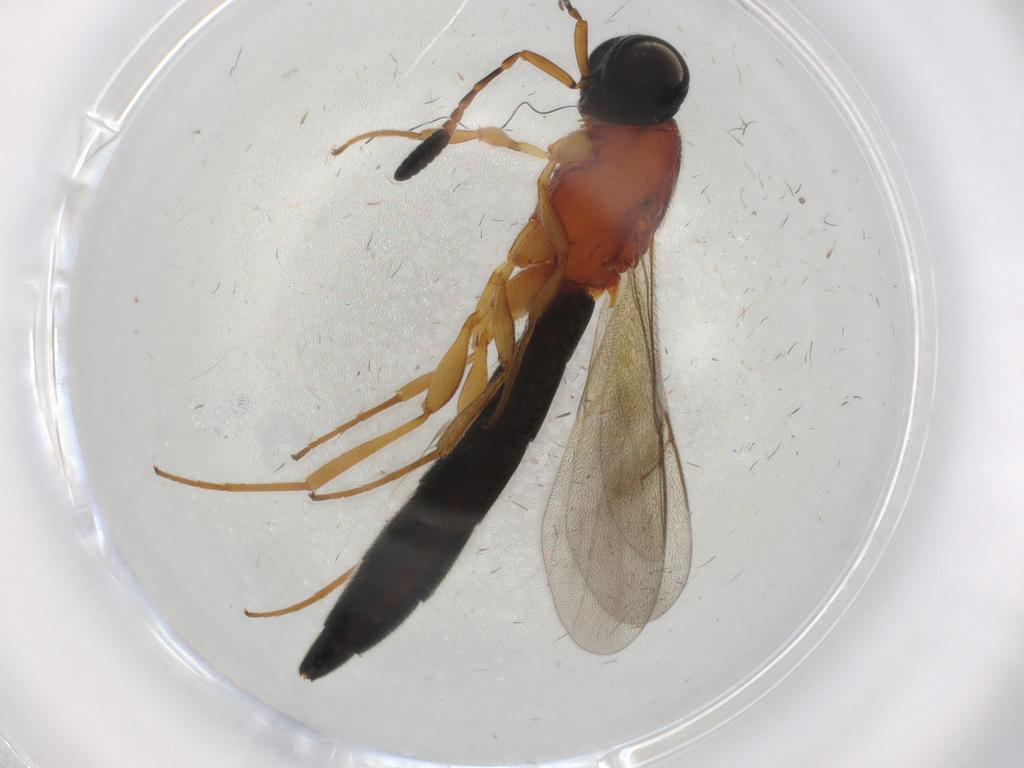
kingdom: Animalia
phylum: Arthropoda
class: Insecta
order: Hymenoptera
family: Scelionidae
